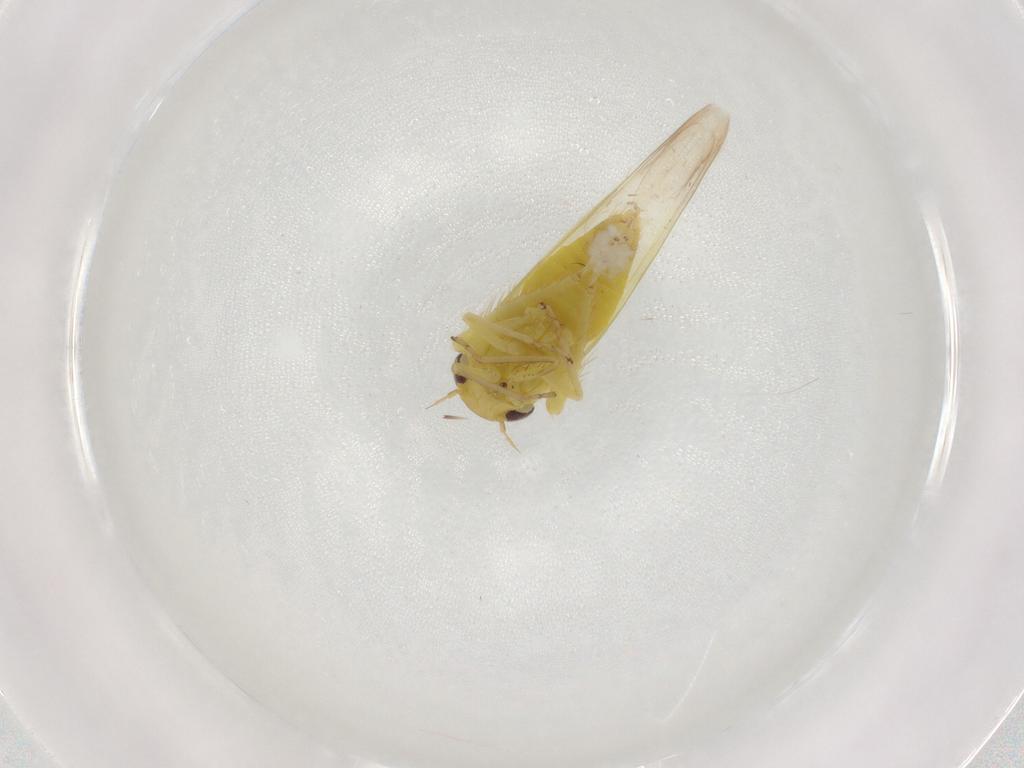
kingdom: Animalia
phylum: Arthropoda
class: Insecta
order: Hemiptera
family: Cicadellidae
